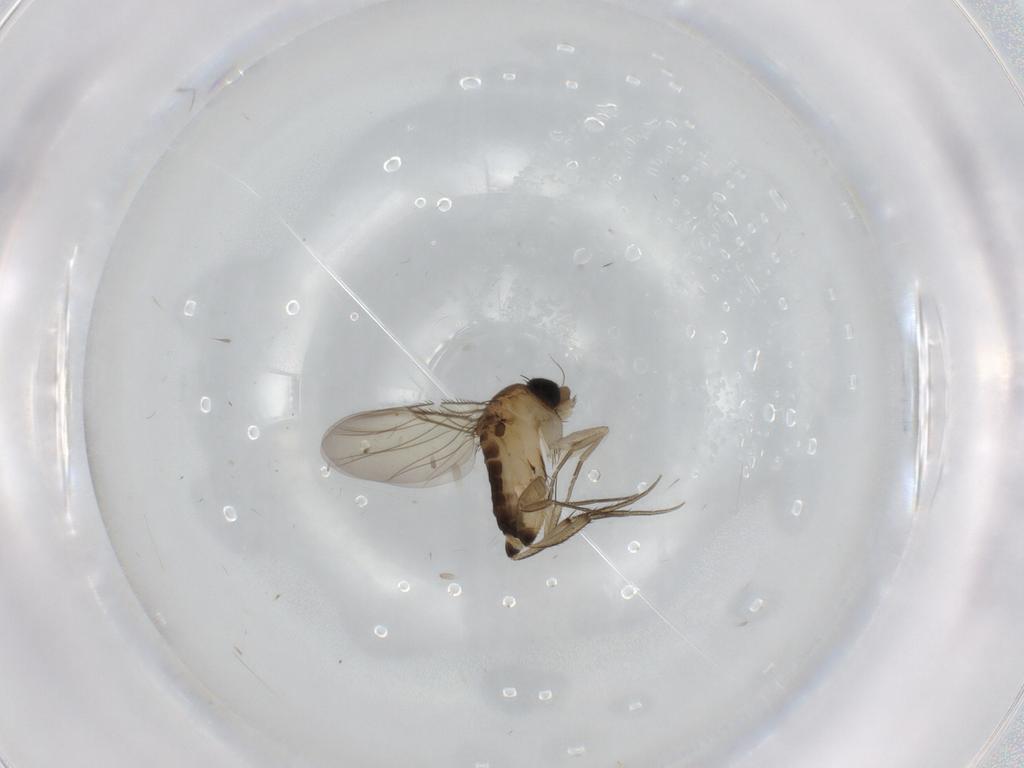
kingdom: Animalia
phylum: Arthropoda
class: Insecta
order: Diptera
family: Phoridae
